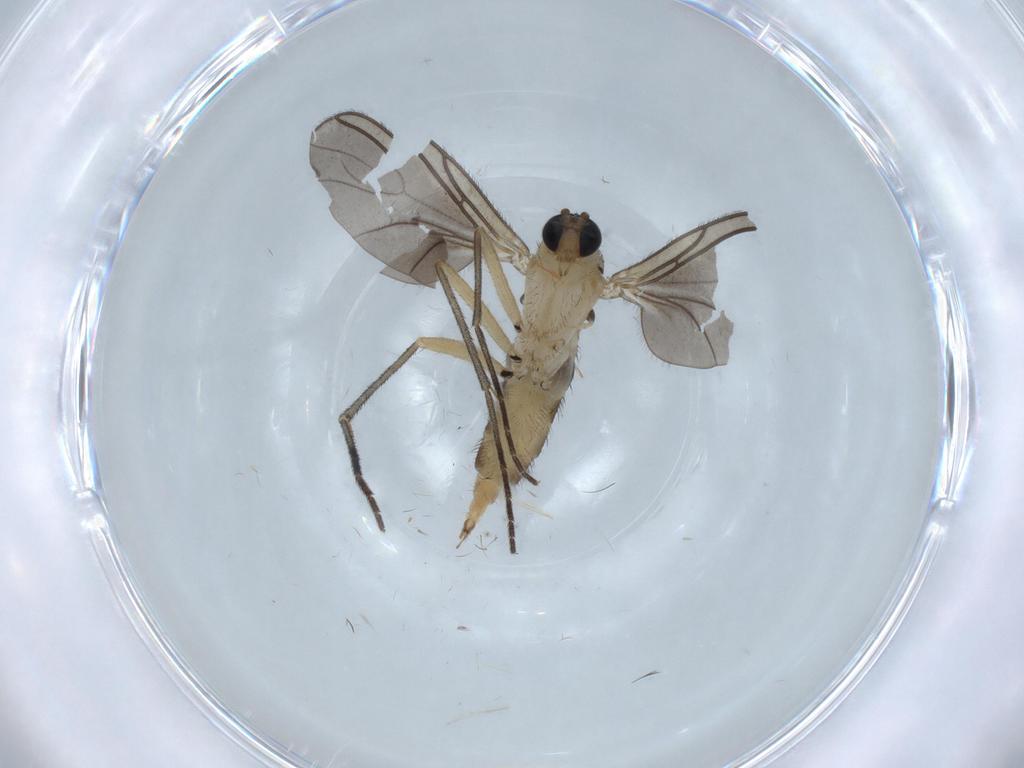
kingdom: Animalia
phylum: Arthropoda
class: Insecta
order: Diptera
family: Sciaridae
